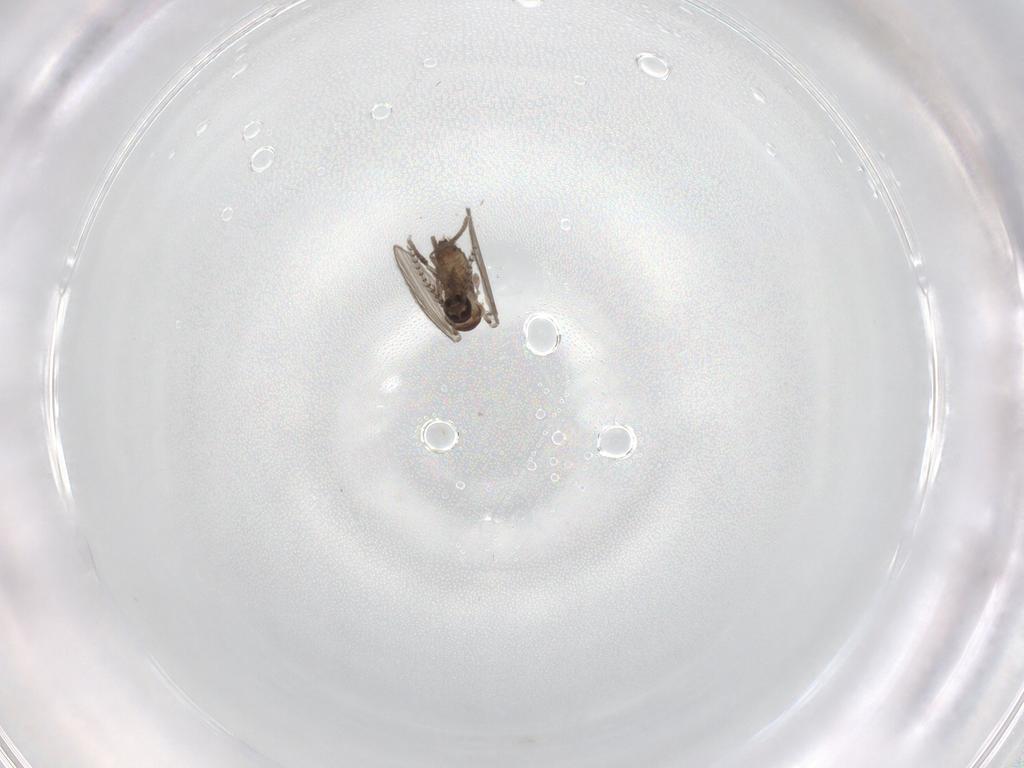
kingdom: Animalia
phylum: Arthropoda
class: Insecta
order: Diptera
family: Psychodidae
